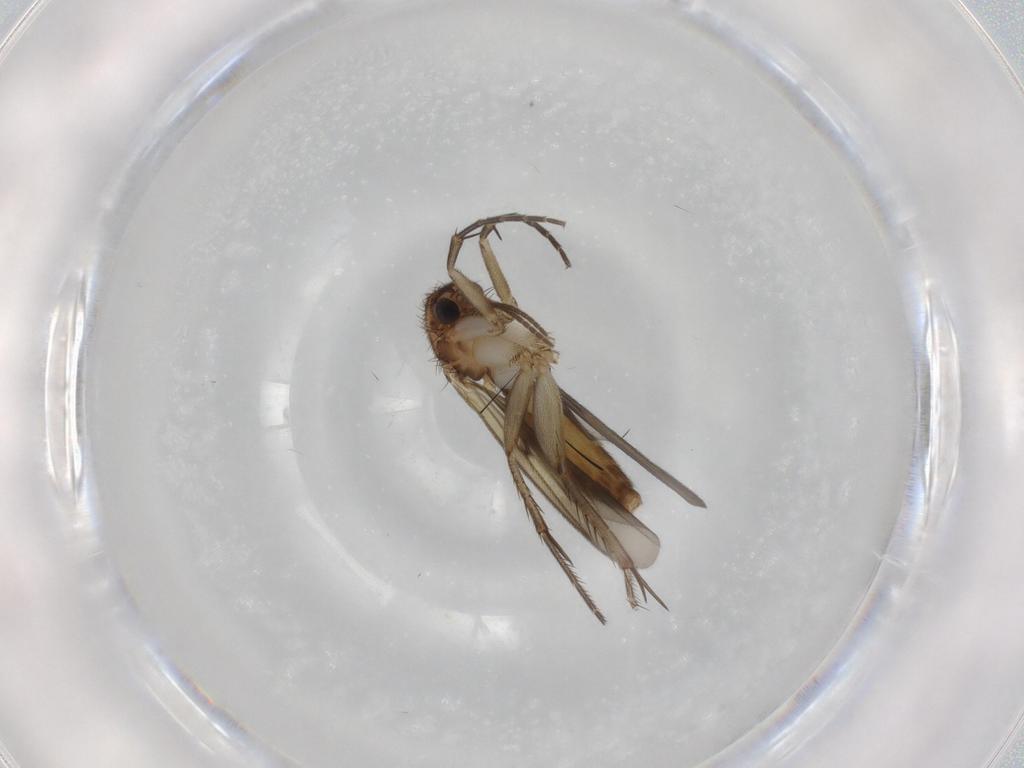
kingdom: Animalia
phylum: Arthropoda
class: Insecta
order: Diptera
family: Mycetophilidae
